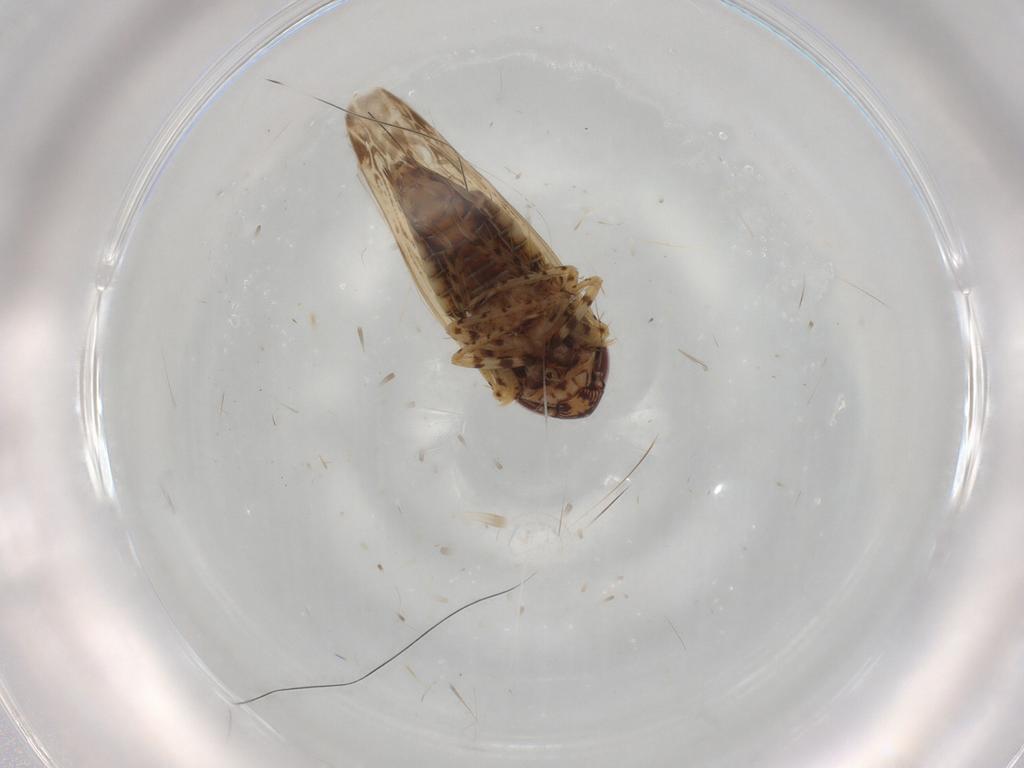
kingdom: Animalia
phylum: Arthropoda
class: Insecta
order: Hemiptera
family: Cicadellidae
